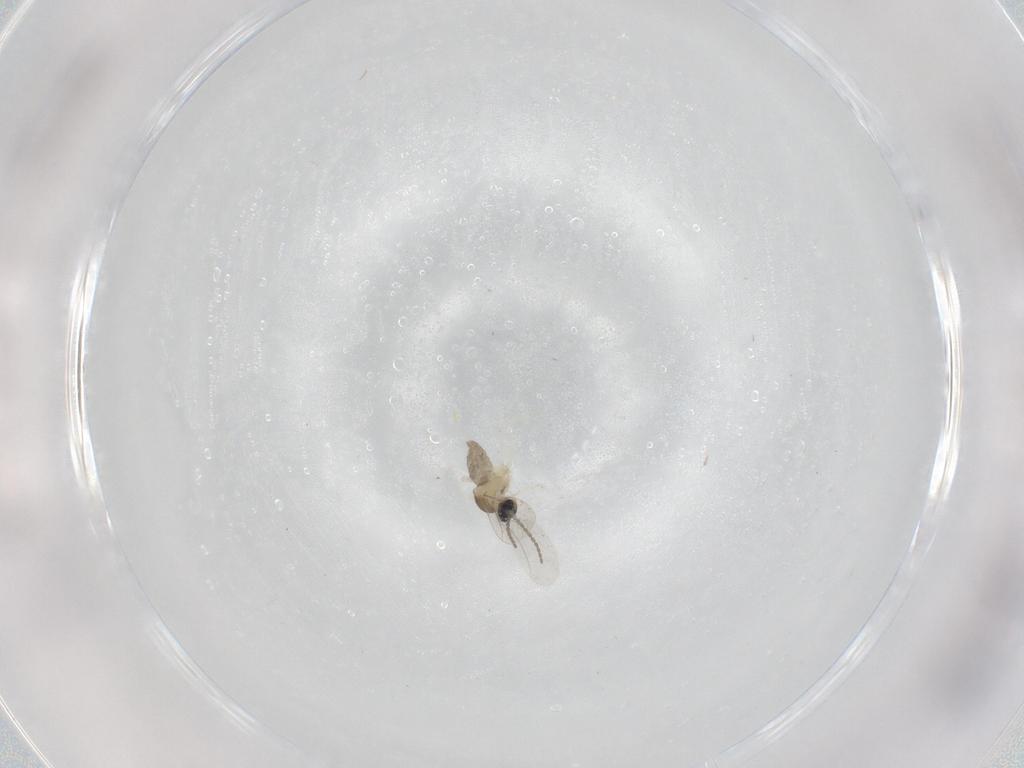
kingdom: Animalia
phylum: Arthropoda
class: Insecta
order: Diptera
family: Cecidomyiidae
